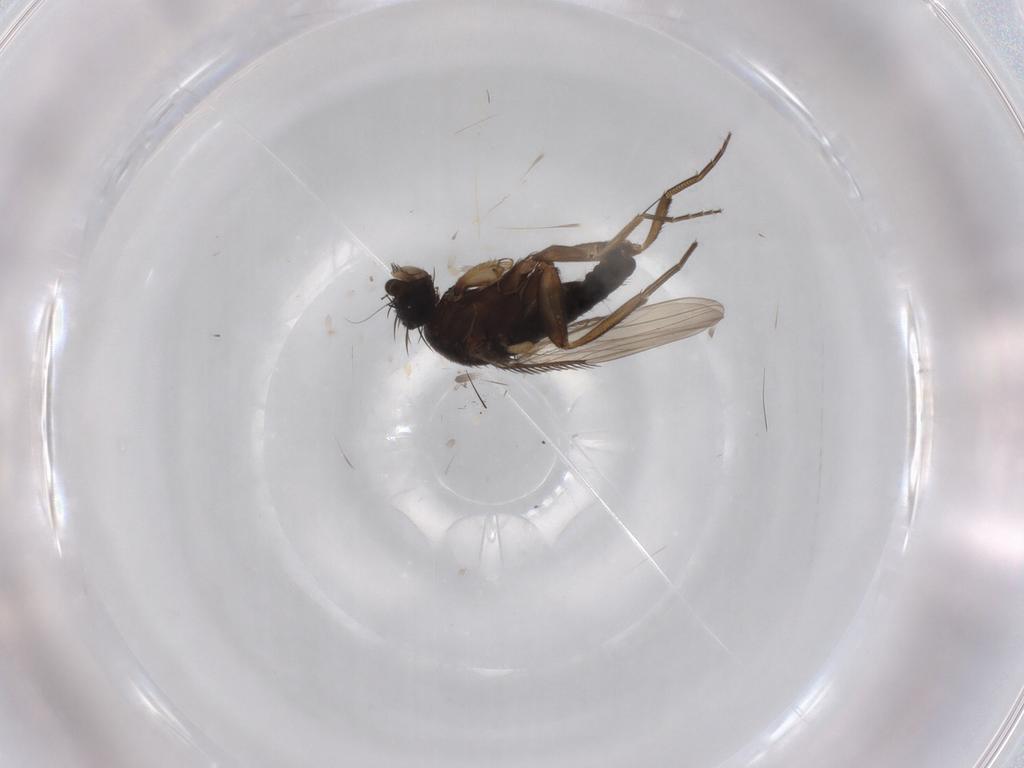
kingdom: Animalia
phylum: Arthropoda
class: Insecta
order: Diptera
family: Phoridae
